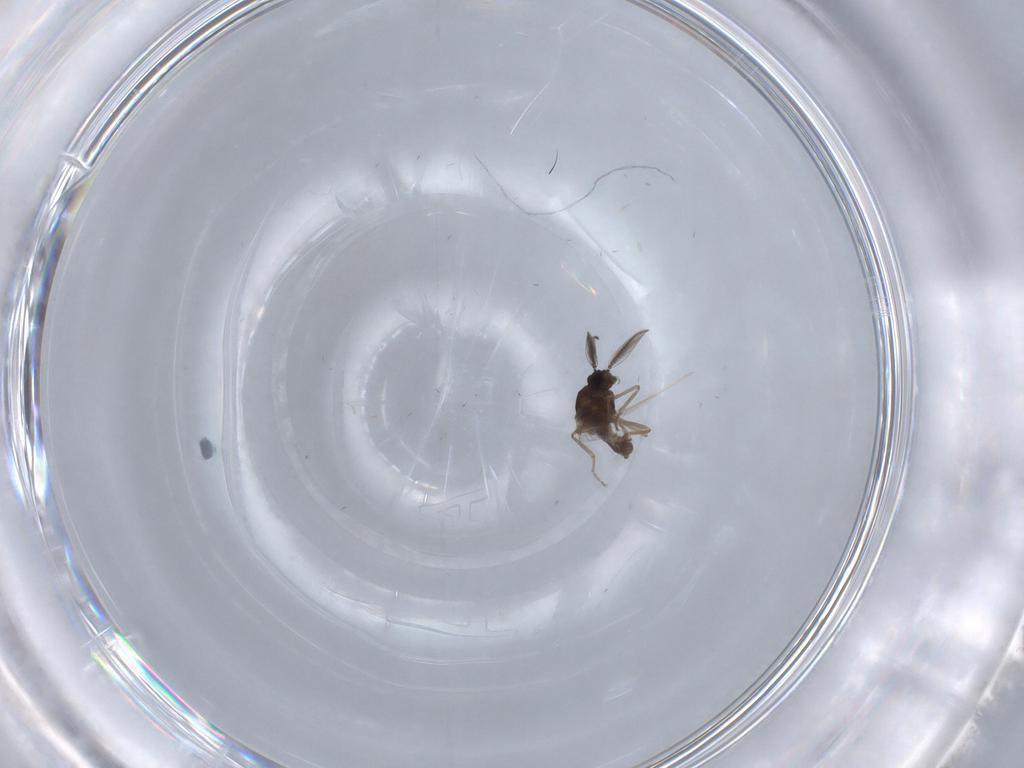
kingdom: Animalia
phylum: Arthropoda
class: Insecta
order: Diptera
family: Ceratopogonidae
